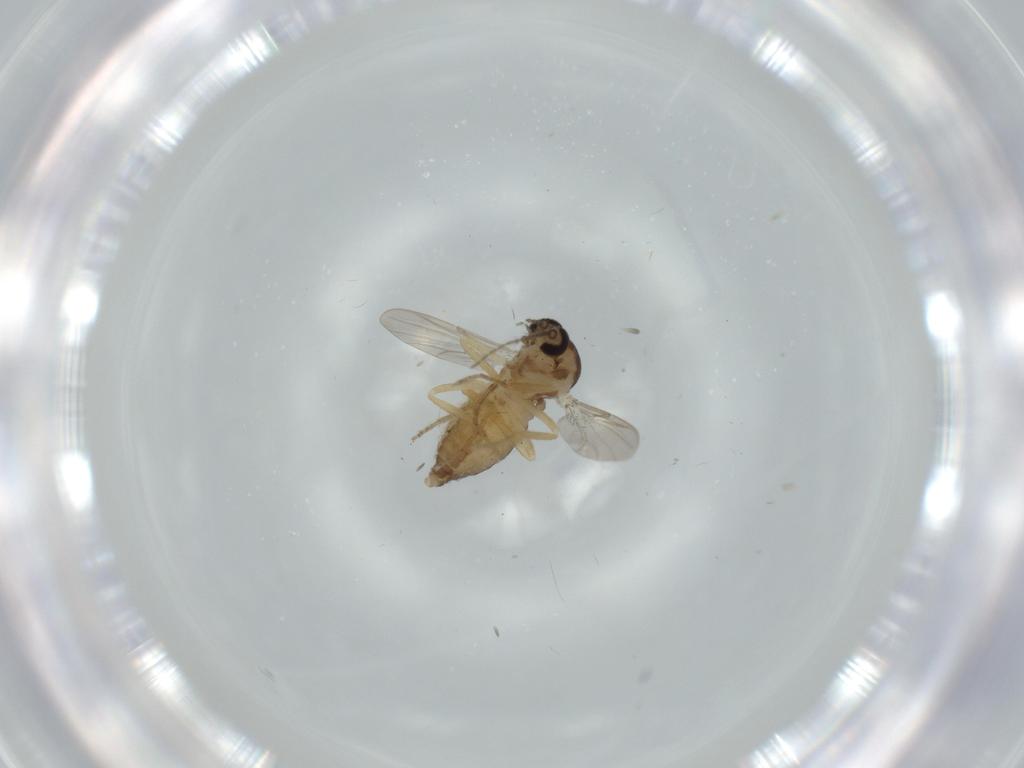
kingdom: Animalia
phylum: Arthropoda
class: Insecta
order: Diptera
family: Ceratopogonidae
